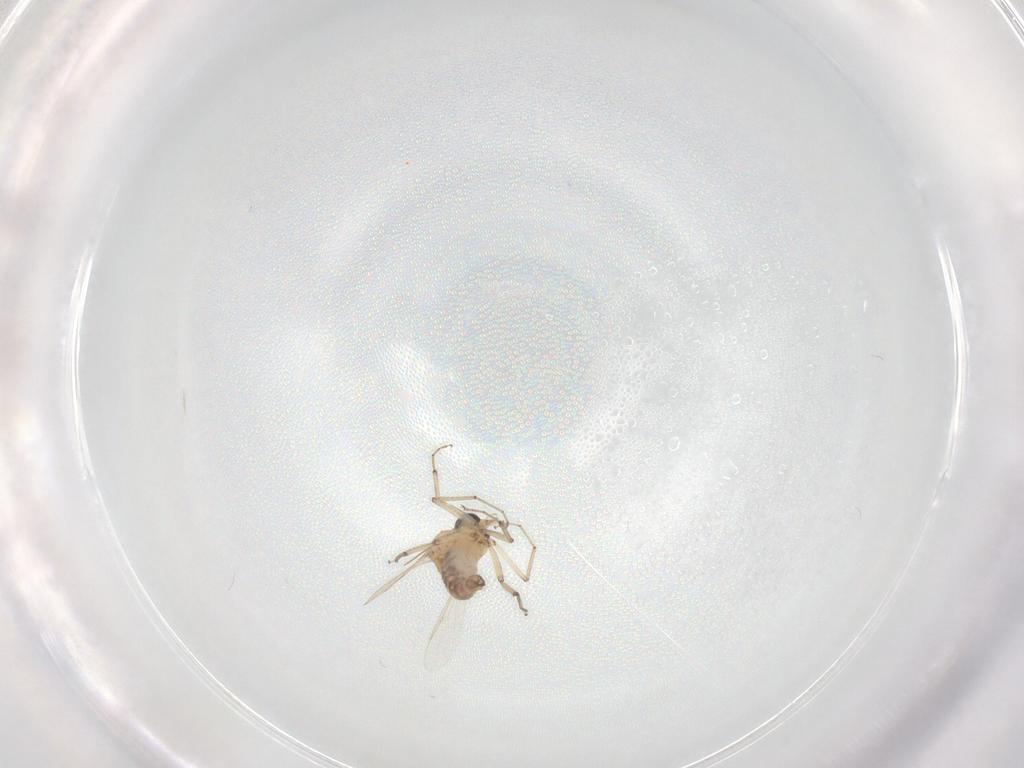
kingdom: Animalia
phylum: Arthropoda
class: Insecta
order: Diptera
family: Ceratopogonidae
